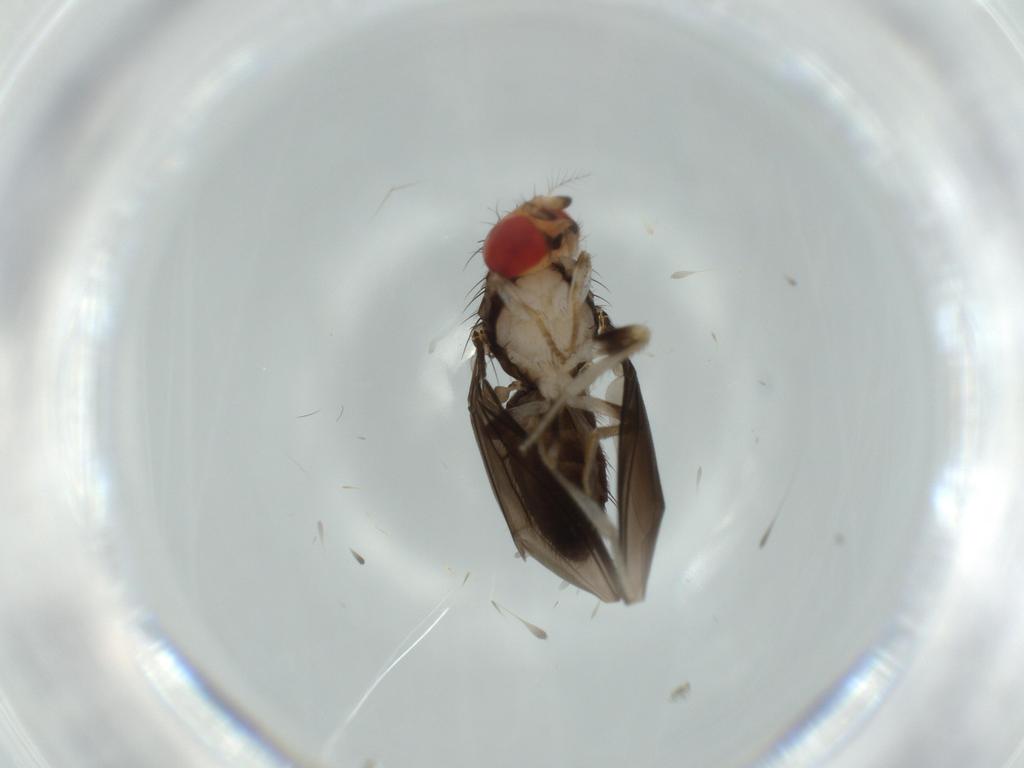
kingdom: Animalia
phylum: Arthropoda
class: Insecta
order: Diptera
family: Drosophilidae
